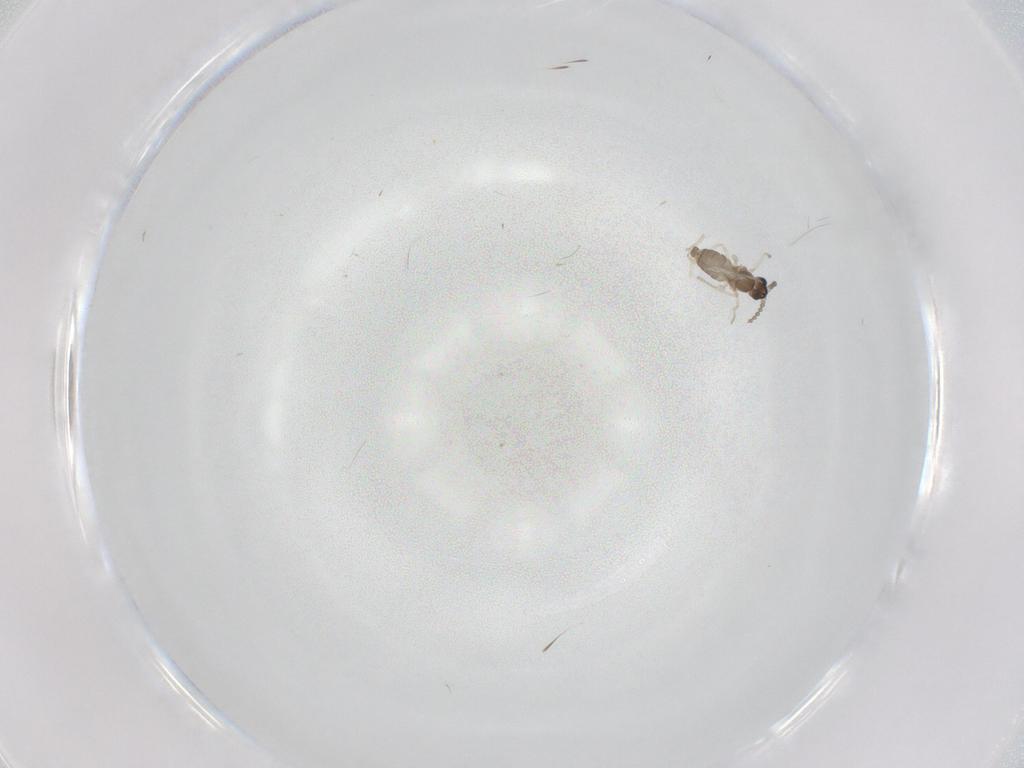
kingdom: Animalia
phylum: Arthropoda
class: Insecta
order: Diptera
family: Cecidomyiidae
